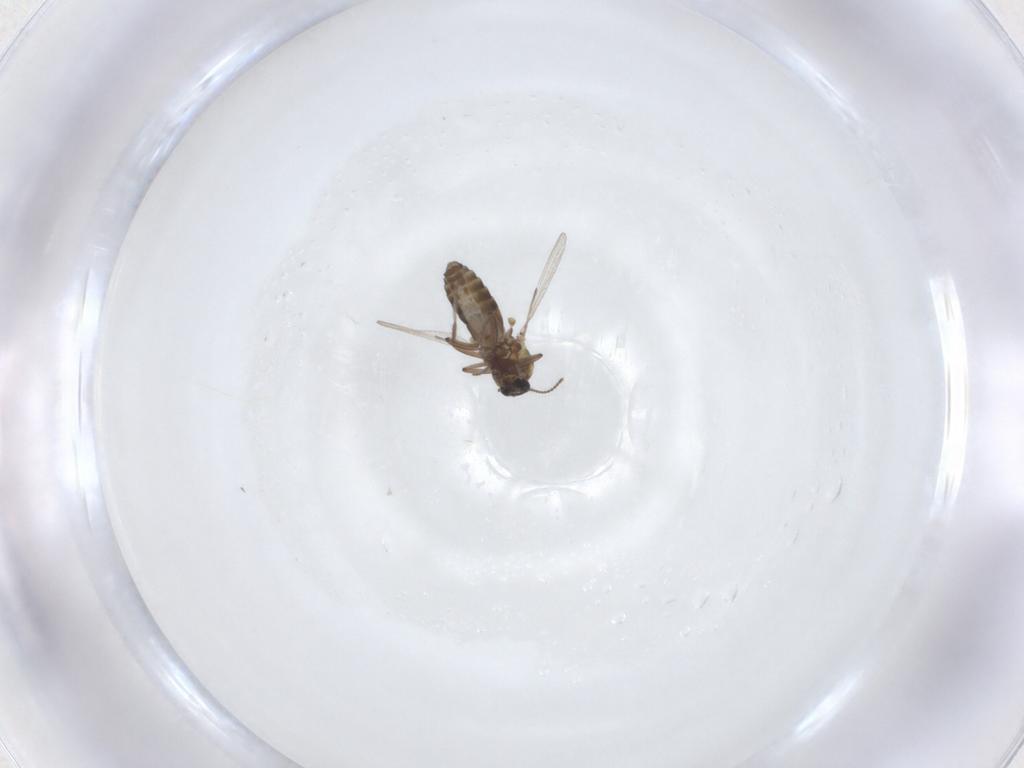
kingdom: Animalia
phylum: Arthropoda
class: Insecta
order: Diptera
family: Ceratopogonidae
